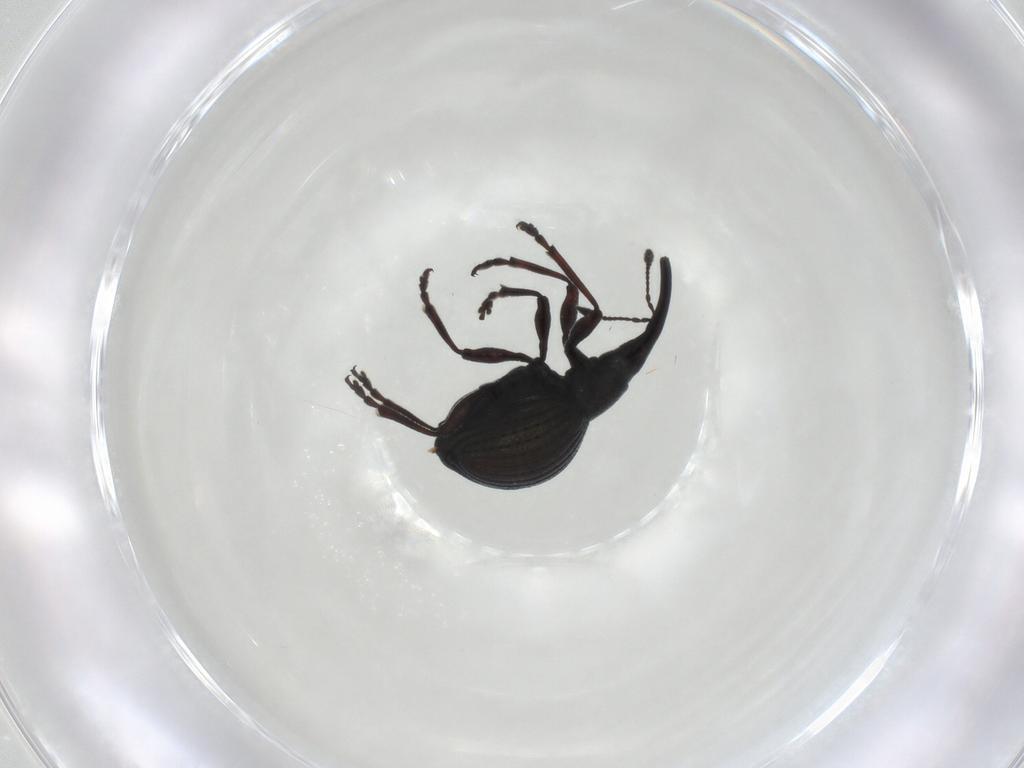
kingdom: Animalia
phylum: Arthropoda
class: Insecta
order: Coleoptera
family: Brentidae
